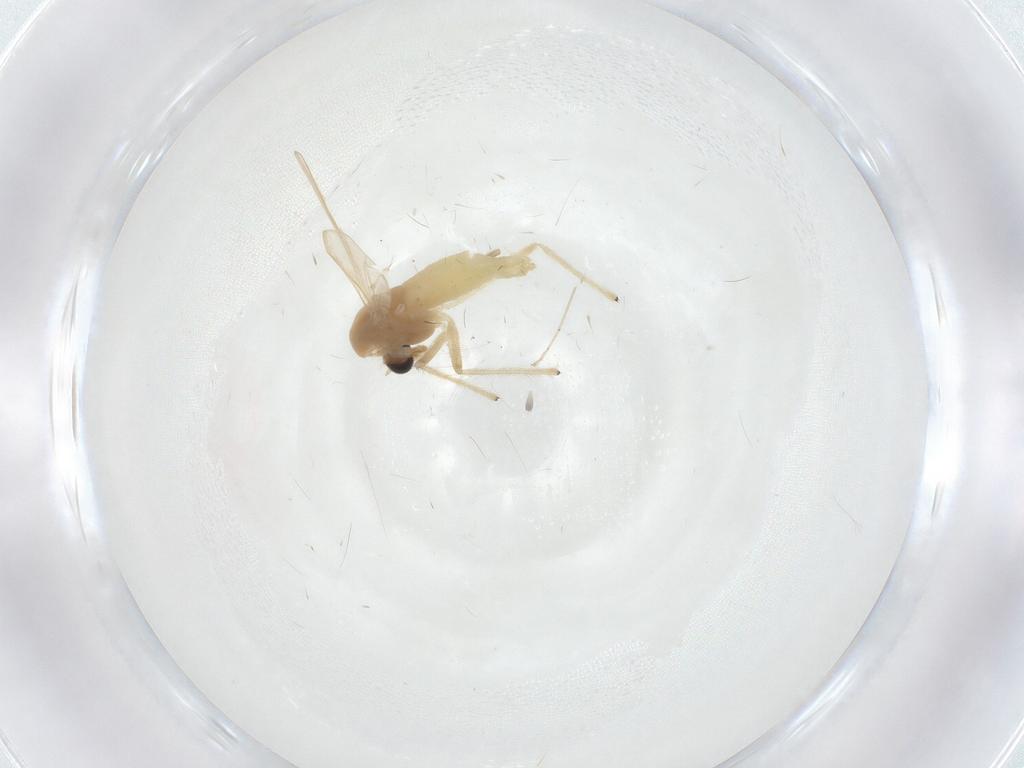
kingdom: Animalia
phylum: Arthropoda
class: Insecta
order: Diptera
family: Chironomidae
